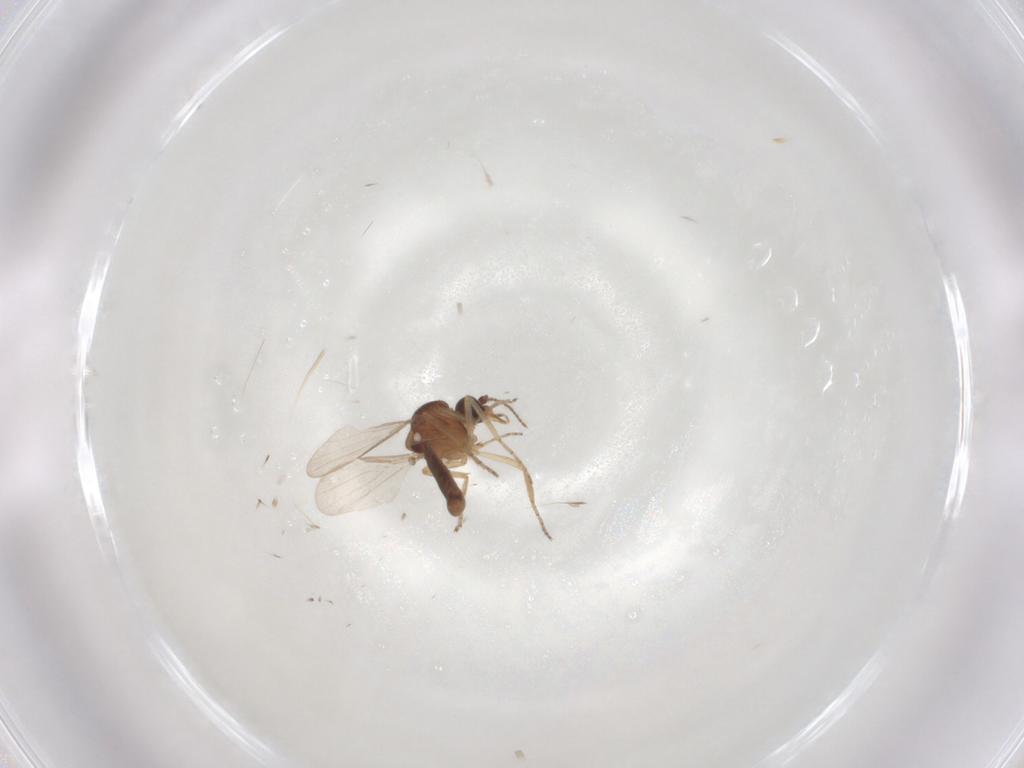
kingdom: Animalia
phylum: Arthropoda
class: Insecta
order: Diptera
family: Ceratopogonidae
